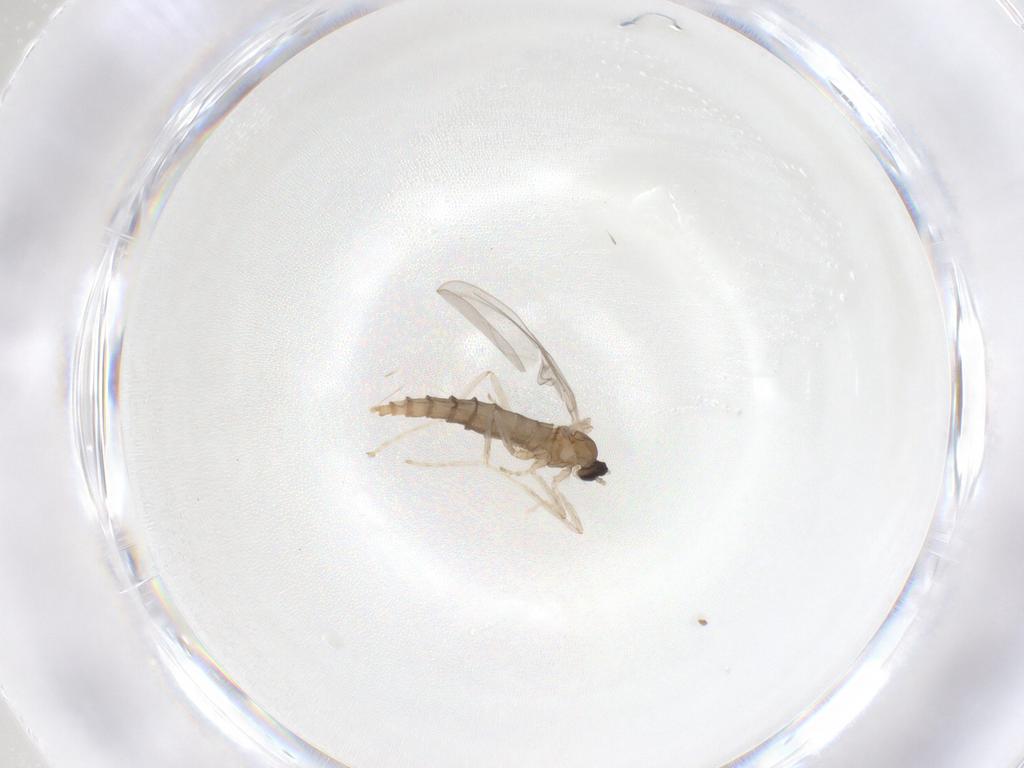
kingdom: Animalia
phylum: Arthropoda
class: Insecta
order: Diptera
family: Cecidomyiidae
